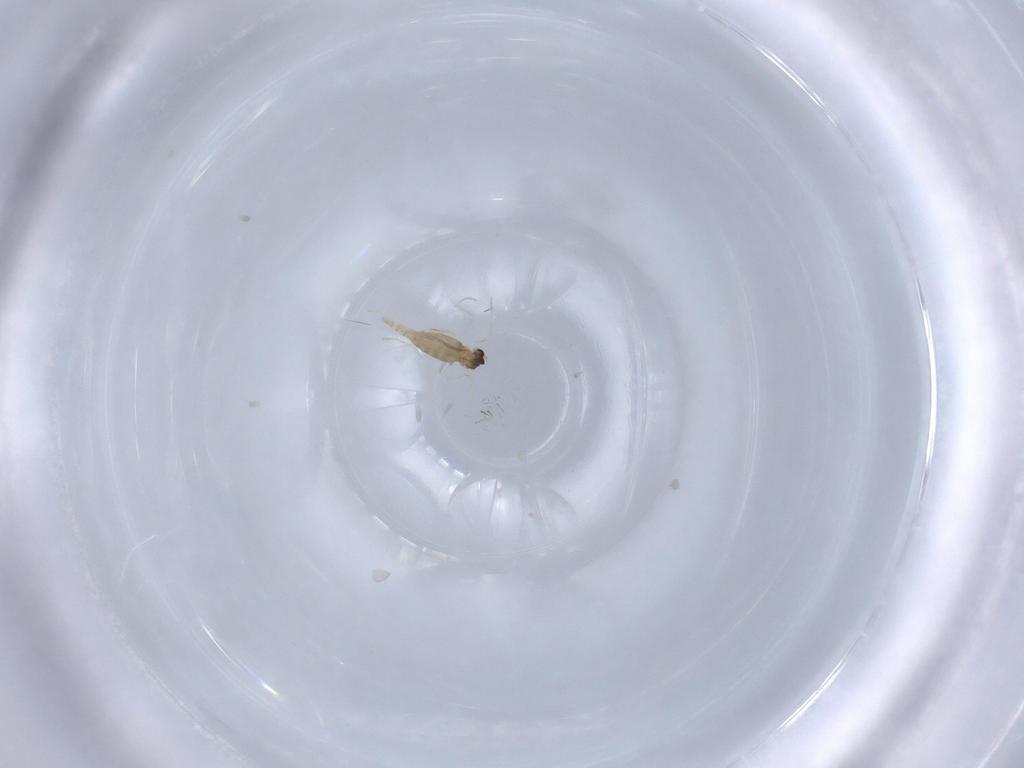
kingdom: Animalia
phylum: Arthropoda
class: Insecta
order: Diptera
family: Cecidomyiidae
